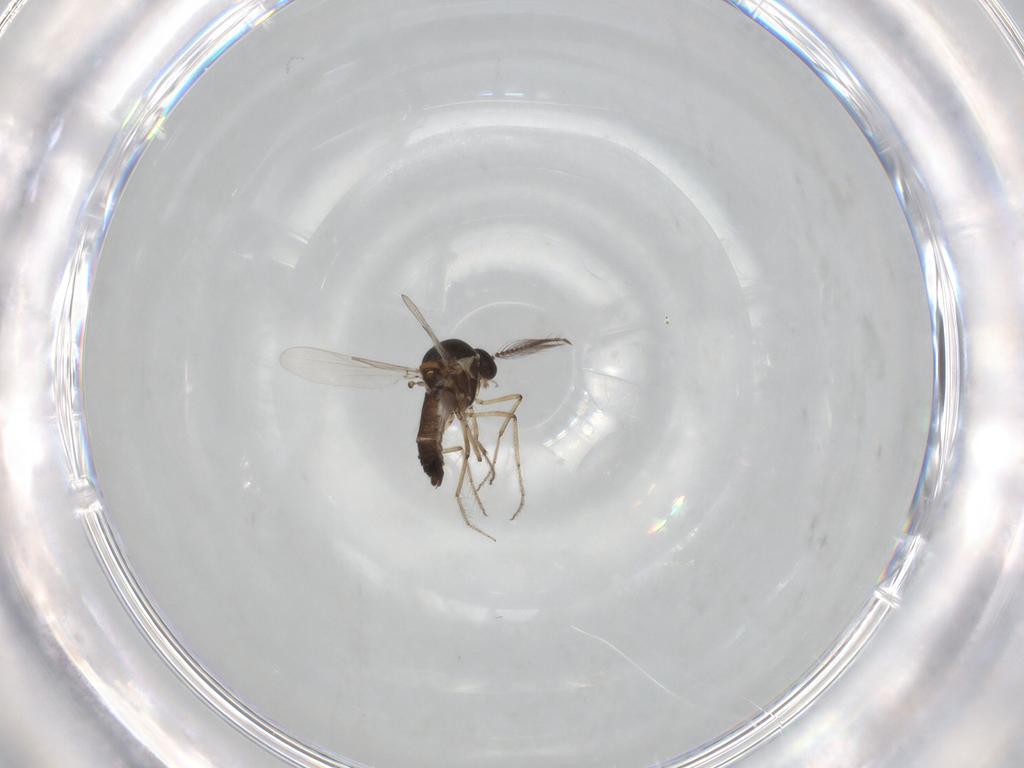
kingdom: Animalia
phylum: Arthropoda
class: Insecta
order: Diptera
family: Ceratopogonidae
